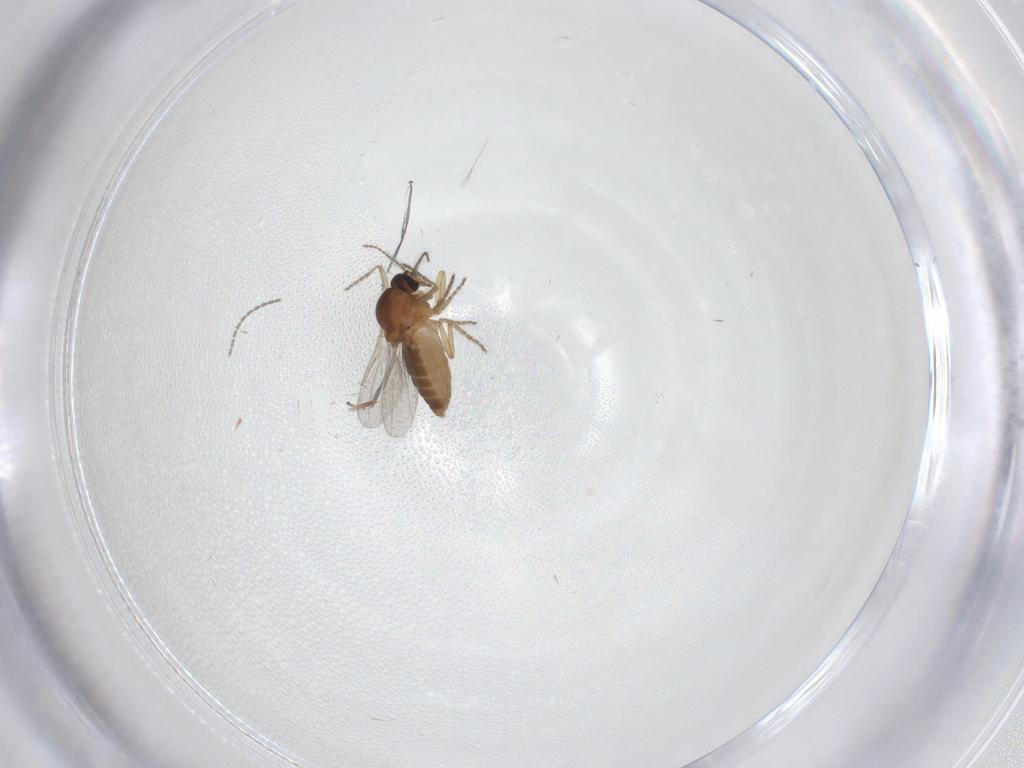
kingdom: Animalia
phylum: Arthropoda
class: Insecta
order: Diptera
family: Ceratopogonidae
